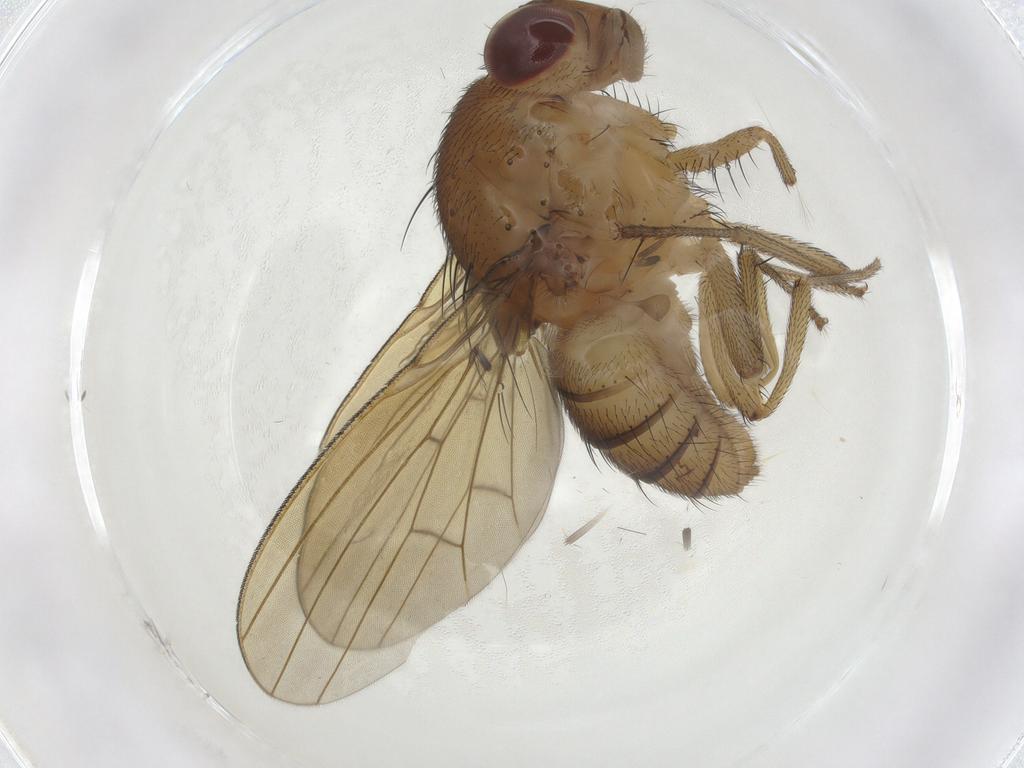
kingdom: Animalia
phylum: Arthropoda
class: Insecta
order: Diptera
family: Chironomidae
